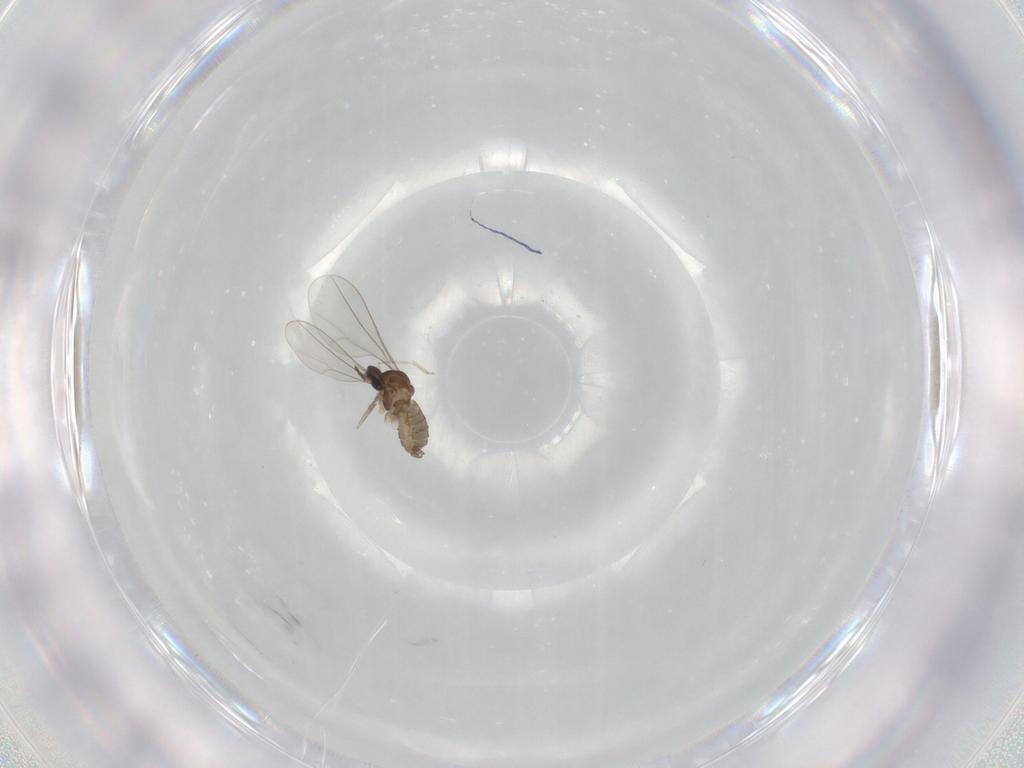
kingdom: Animalia
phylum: Arthropoda
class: Insecta
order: Diptera
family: Psychodidae
